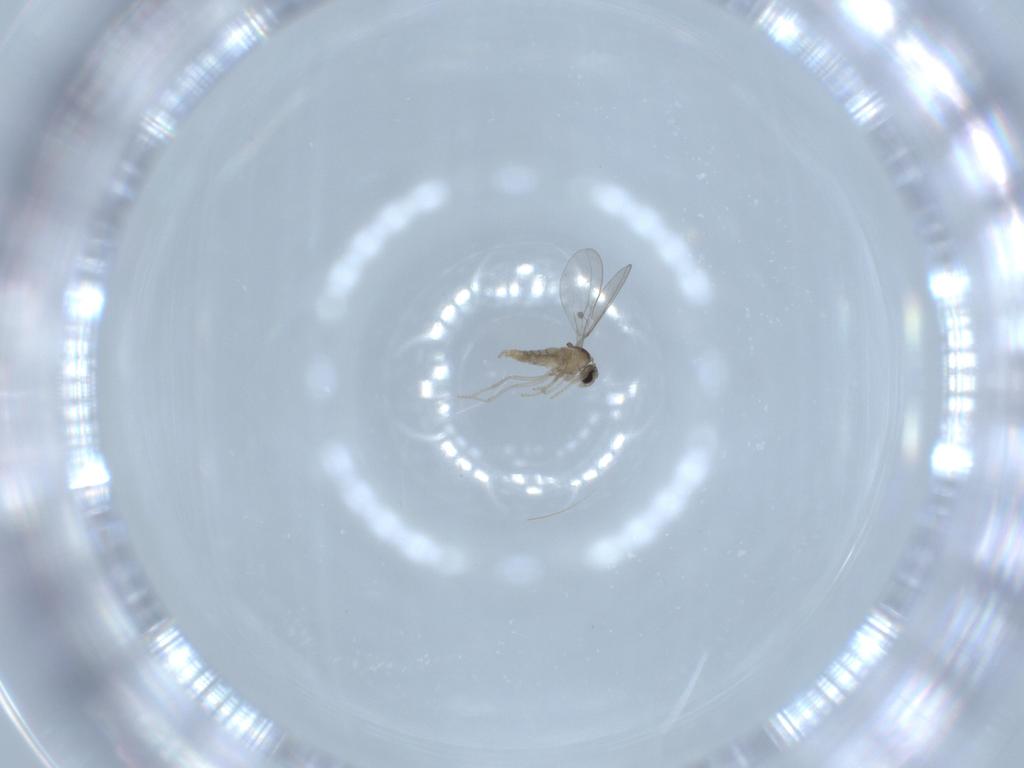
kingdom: Animalia
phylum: Arthropoda
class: Insecta
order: Diptera
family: Cecidomyiidae
